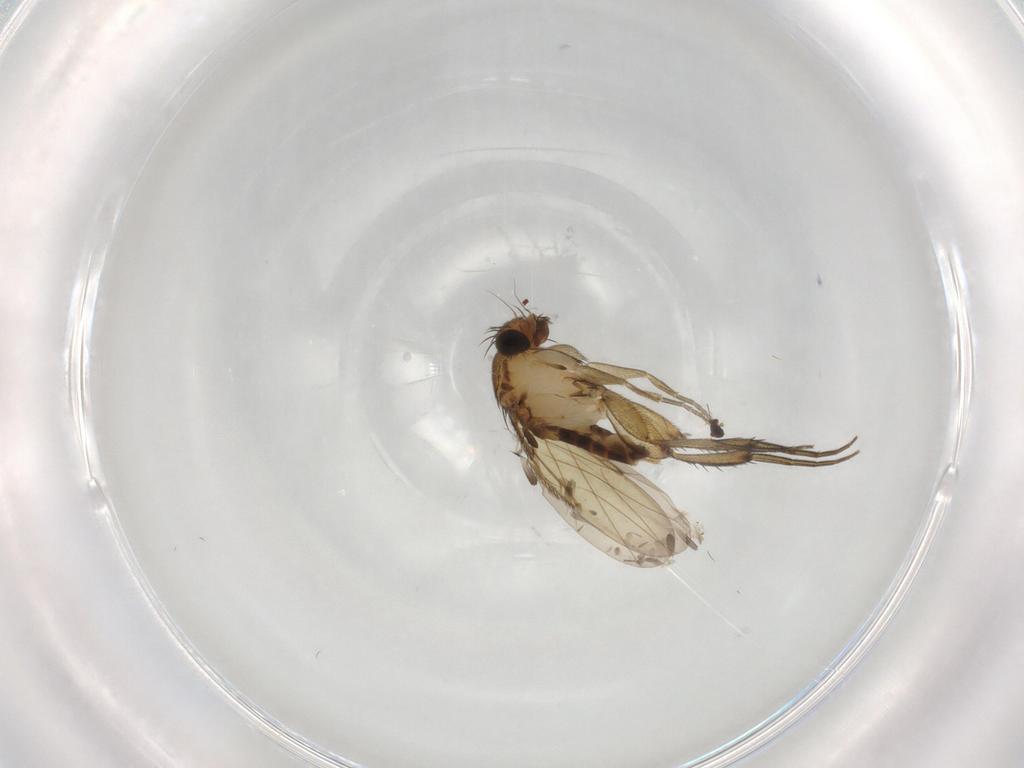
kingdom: Animalia
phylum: Arthropoda
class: Insecta
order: Diptera
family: Phoridae
